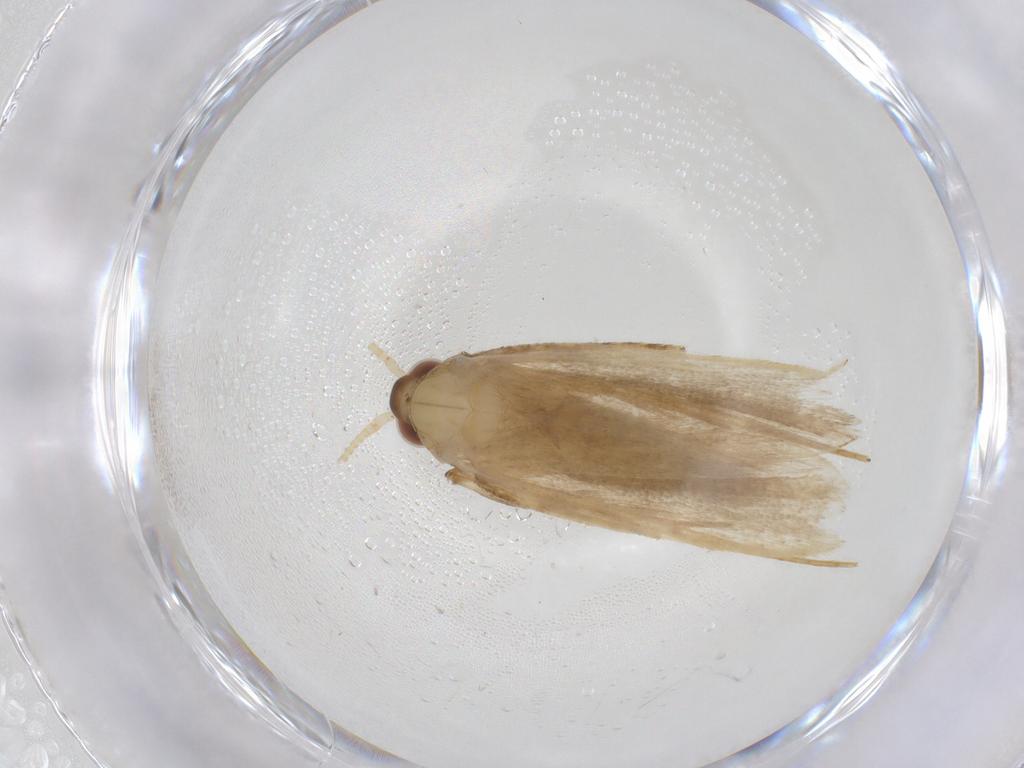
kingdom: Animalia
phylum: Arthropoda
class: Insecta
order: Lepidoptera
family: Lecithoceridae
